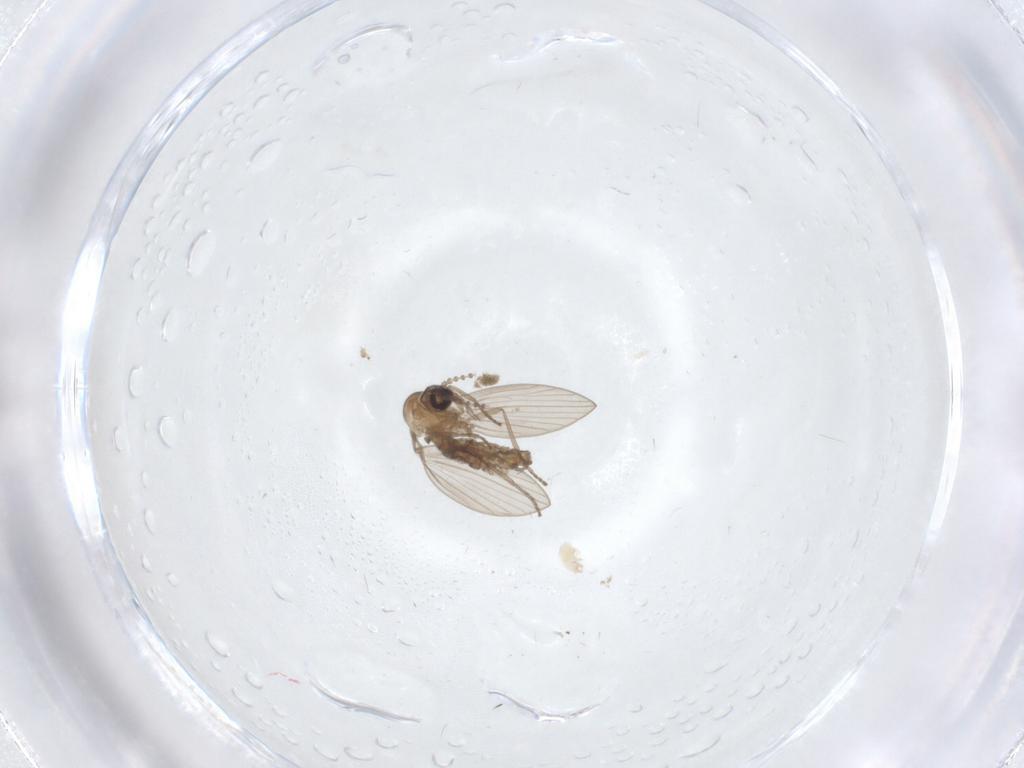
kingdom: Animalia
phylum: Arthropoda
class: Insecta
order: Diptera
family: Psychodidae
